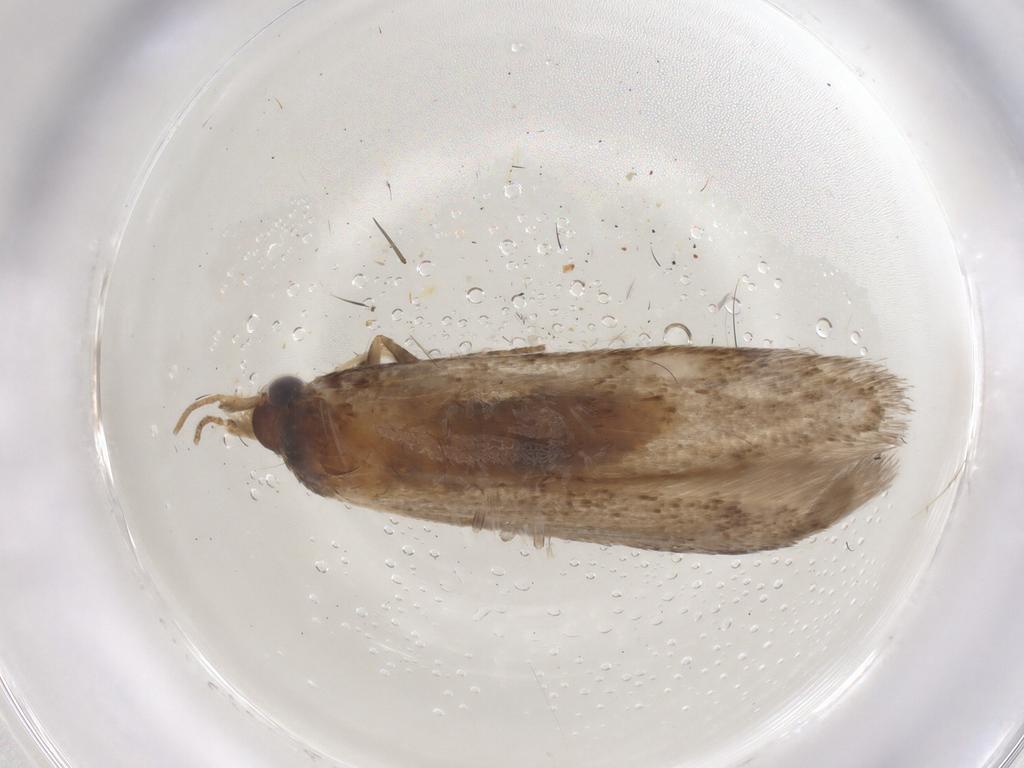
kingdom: Animalia
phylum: Arthropoda
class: Insecta
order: Lepidoptera
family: Coleophoridae
